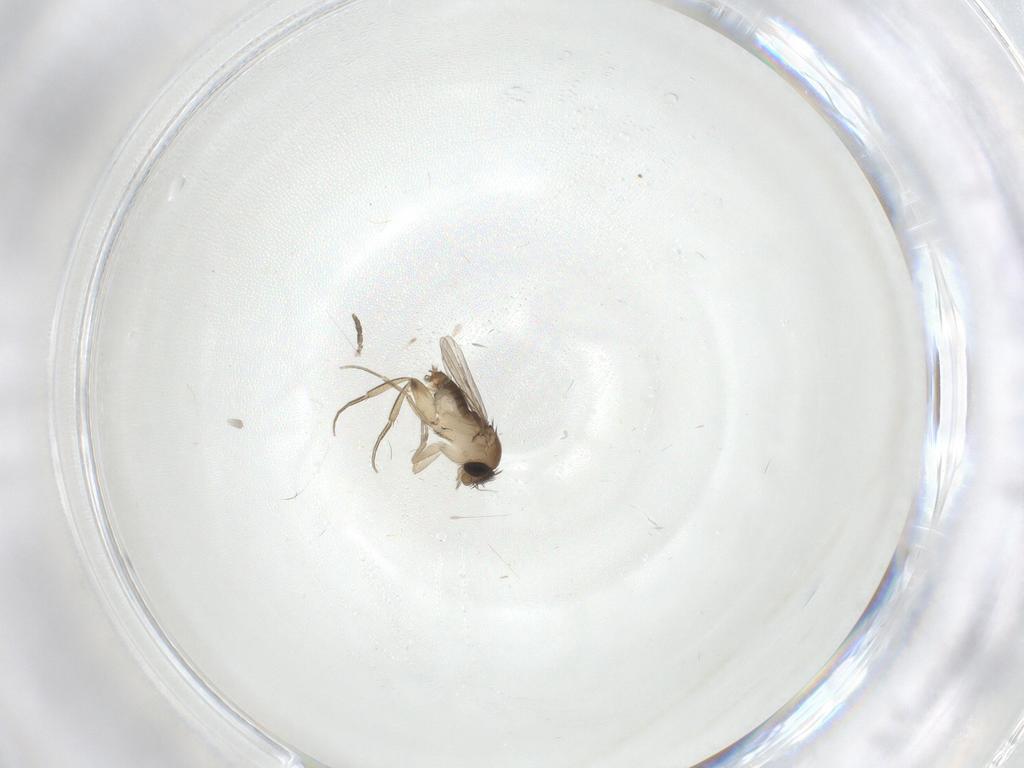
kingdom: Animalia
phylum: Arthropoda
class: Insecta
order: Diptera
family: Phoridae
